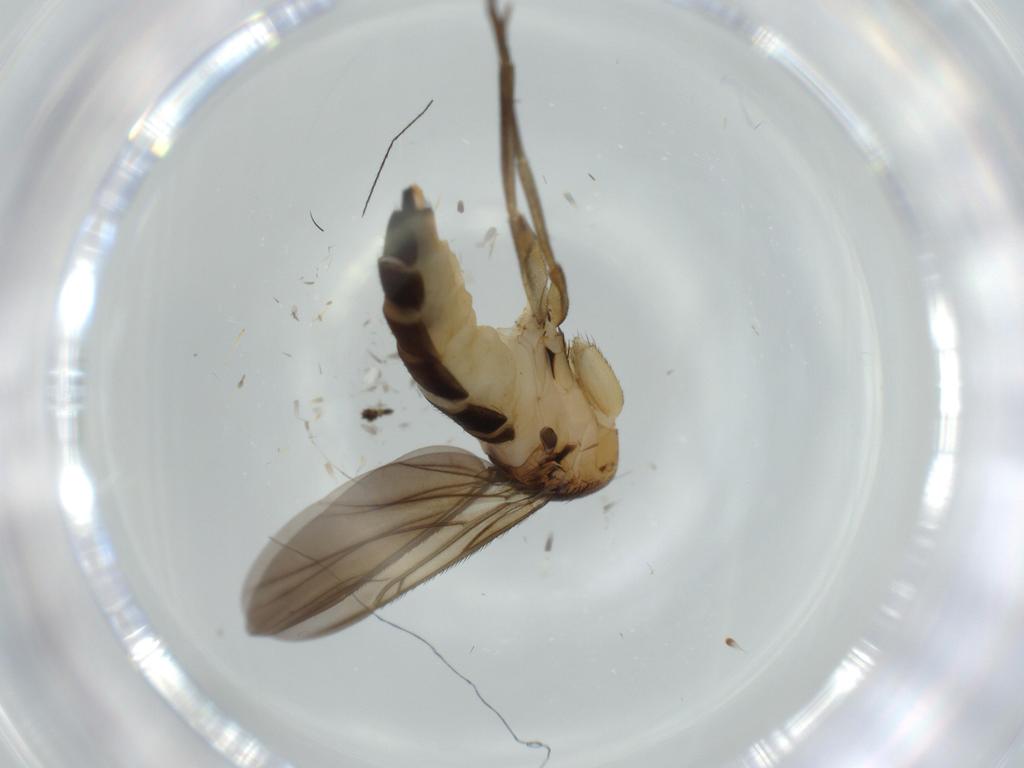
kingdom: Animalia
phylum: Arthropoda
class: Insecta
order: Diptera
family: Phoridae
